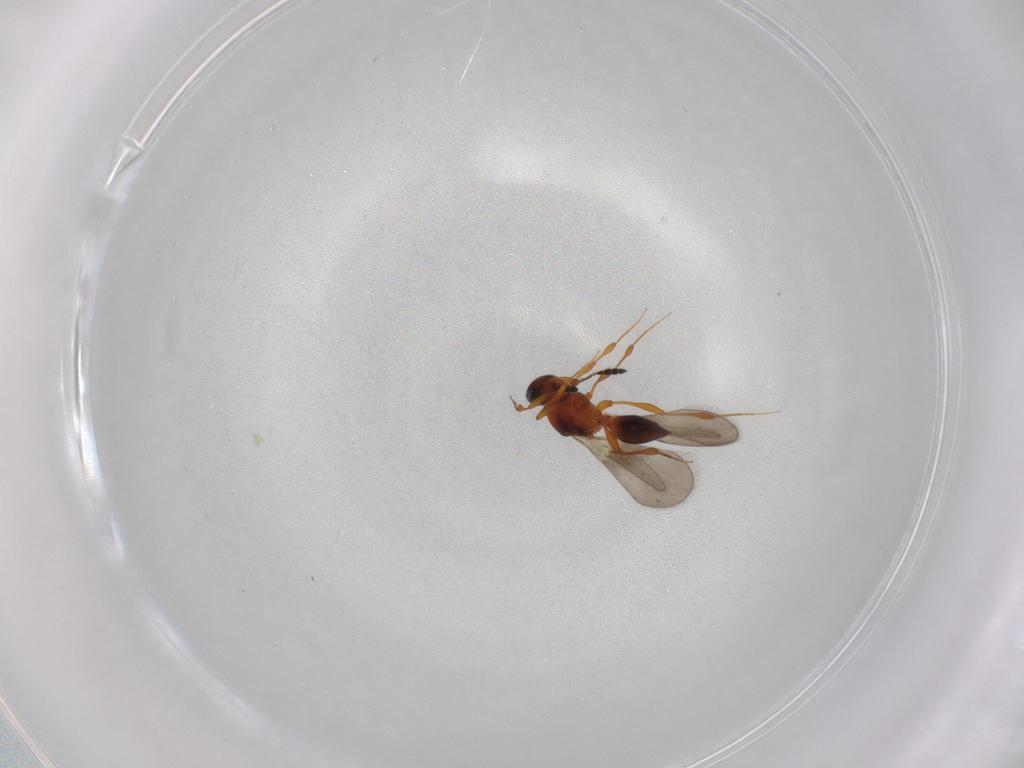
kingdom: Animalia
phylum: Arthropoda
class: Insecta
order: Hymenoptera
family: Platygastridae
